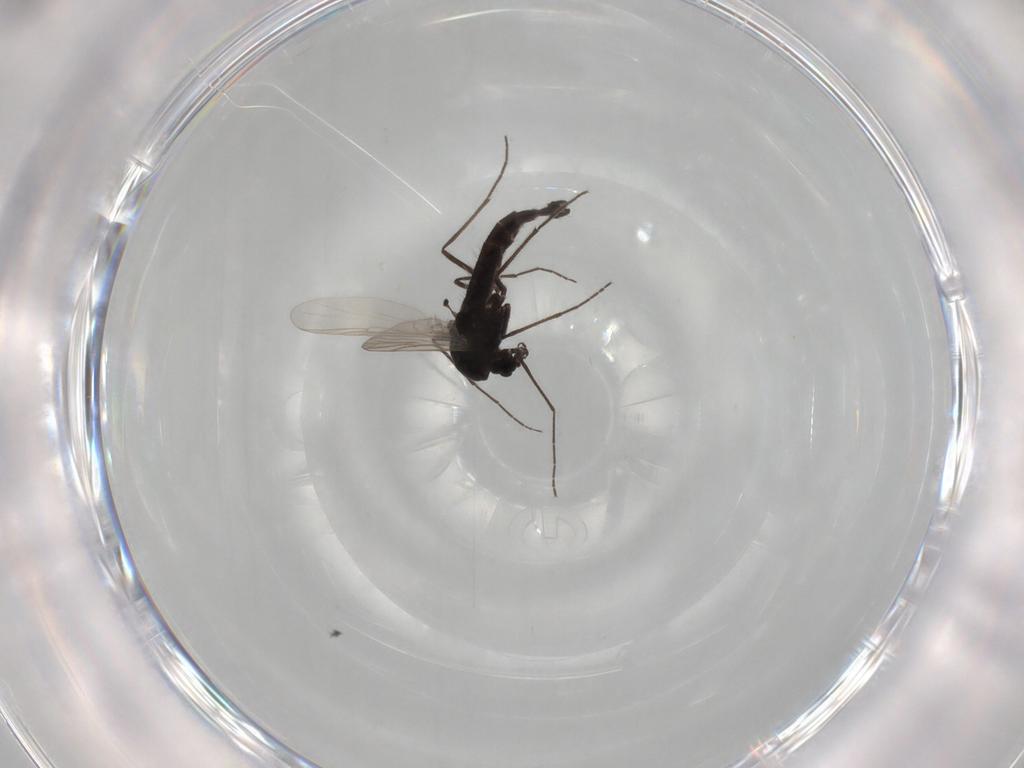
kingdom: Animalia
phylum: Arthropoda
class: Insecta
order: Diptera
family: Chironomidae
